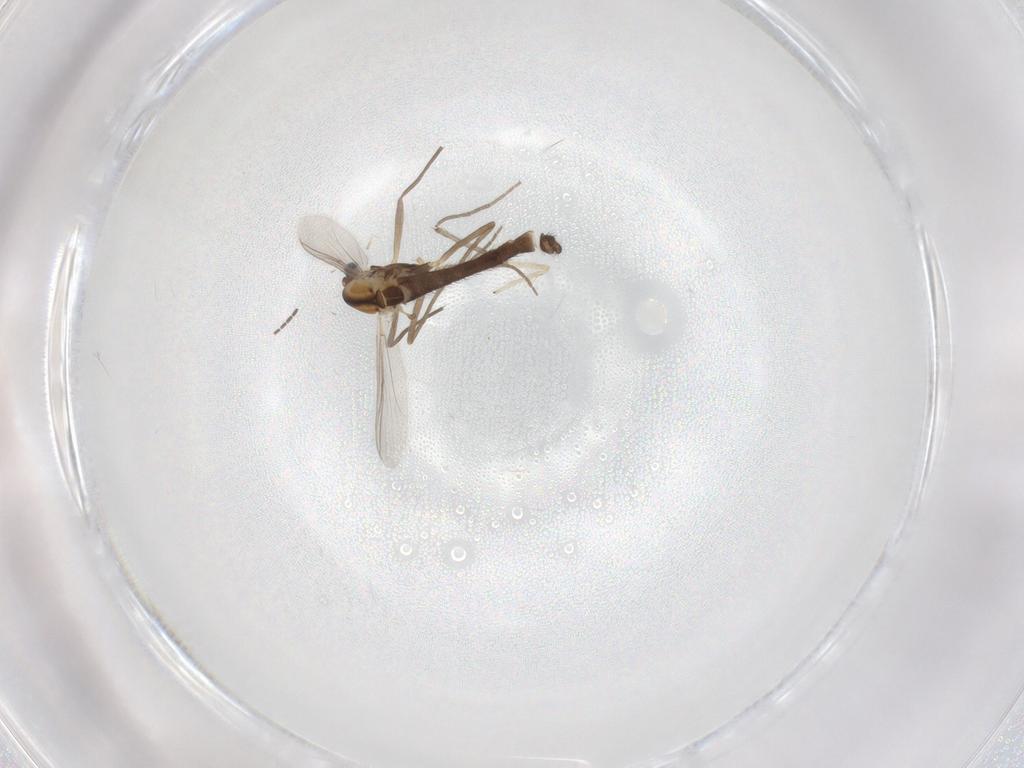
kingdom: Animalia
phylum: Arthropoda
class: Insecta
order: Diptera
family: Chironomidae
